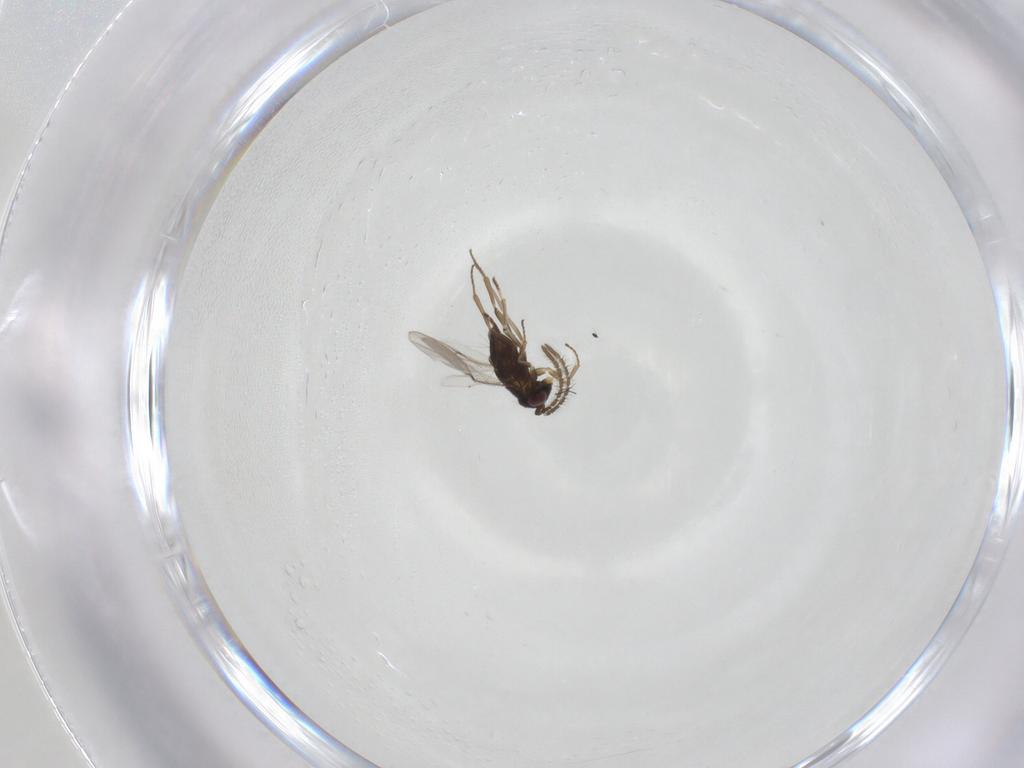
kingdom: Animalia
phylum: Arthropoda
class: Insecta
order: Hymenoptera
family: Encyrtidae
